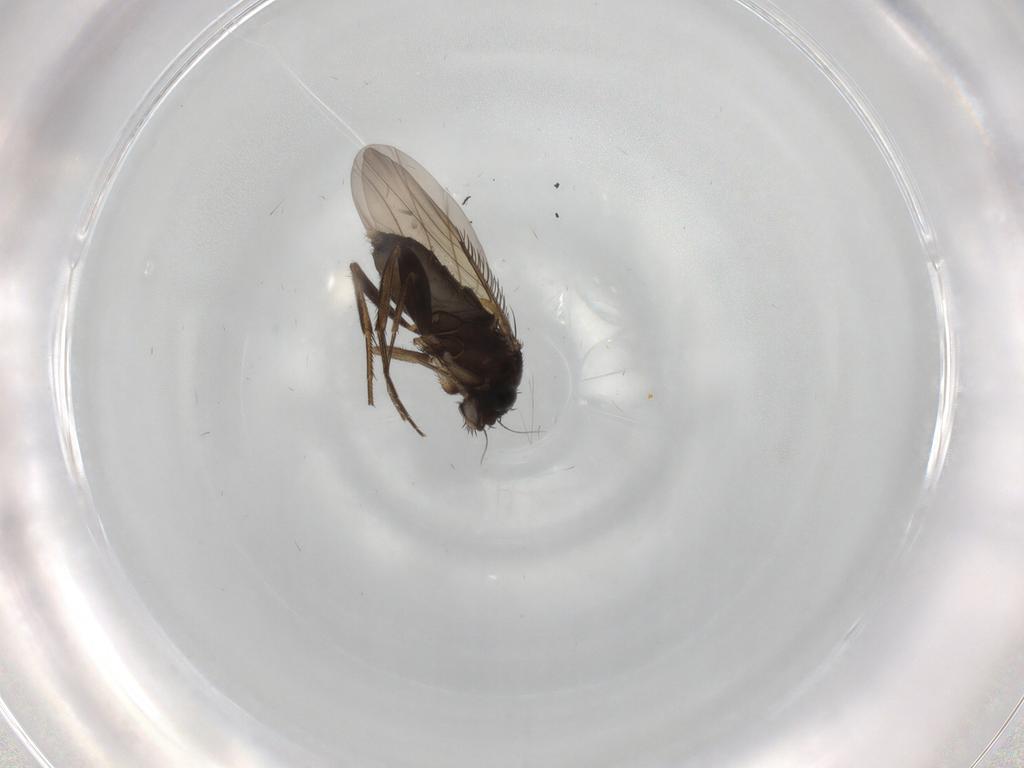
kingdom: Animalia
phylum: Arthropoda
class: Insecta
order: Diptera
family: Phoridae
